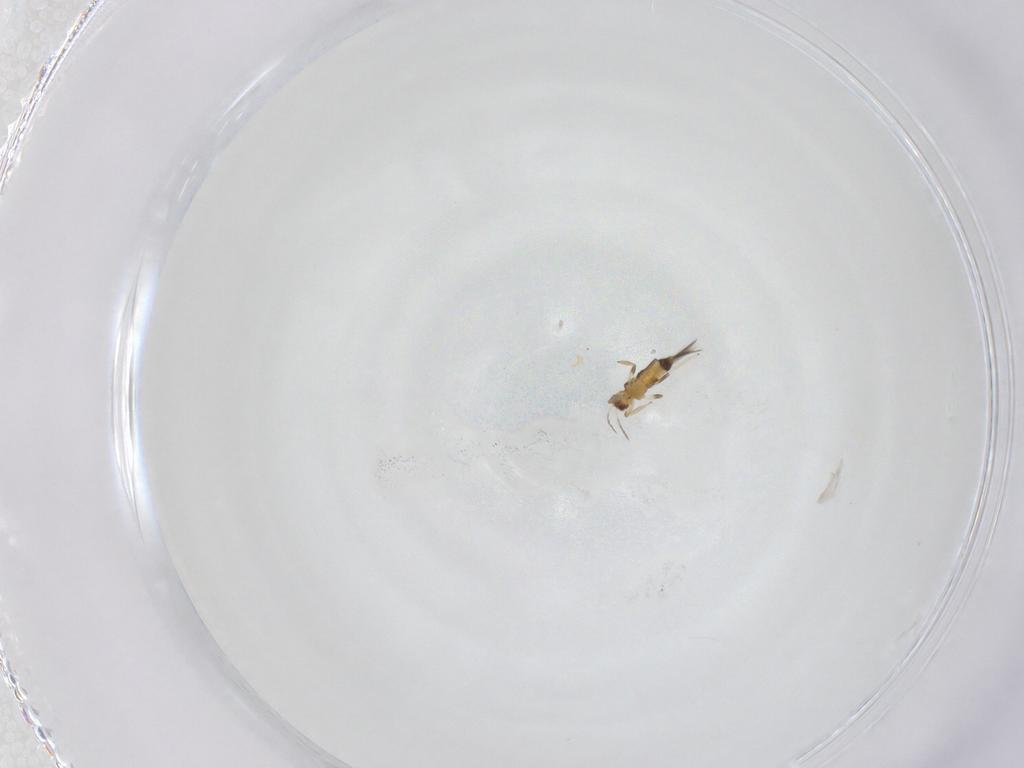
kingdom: Animalia
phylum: Arthropoda
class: Insecta
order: Thysanoptera
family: Thripidae
